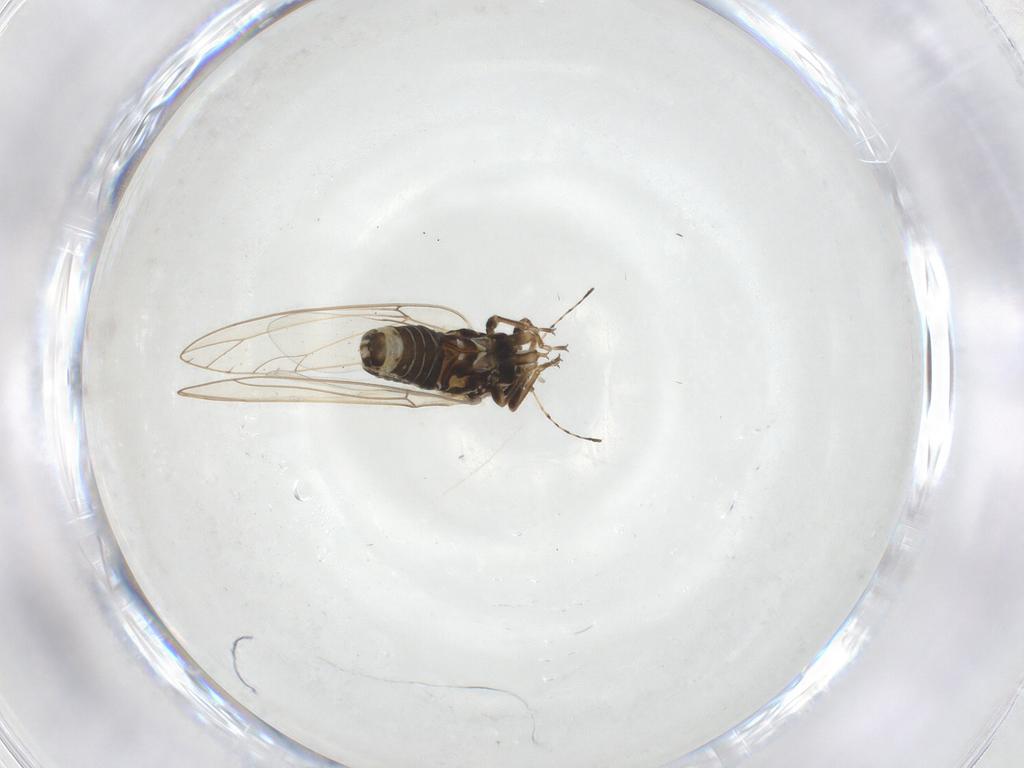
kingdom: Animalia
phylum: Arthropoda
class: Insecta
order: Hemiptera
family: Triozidae
